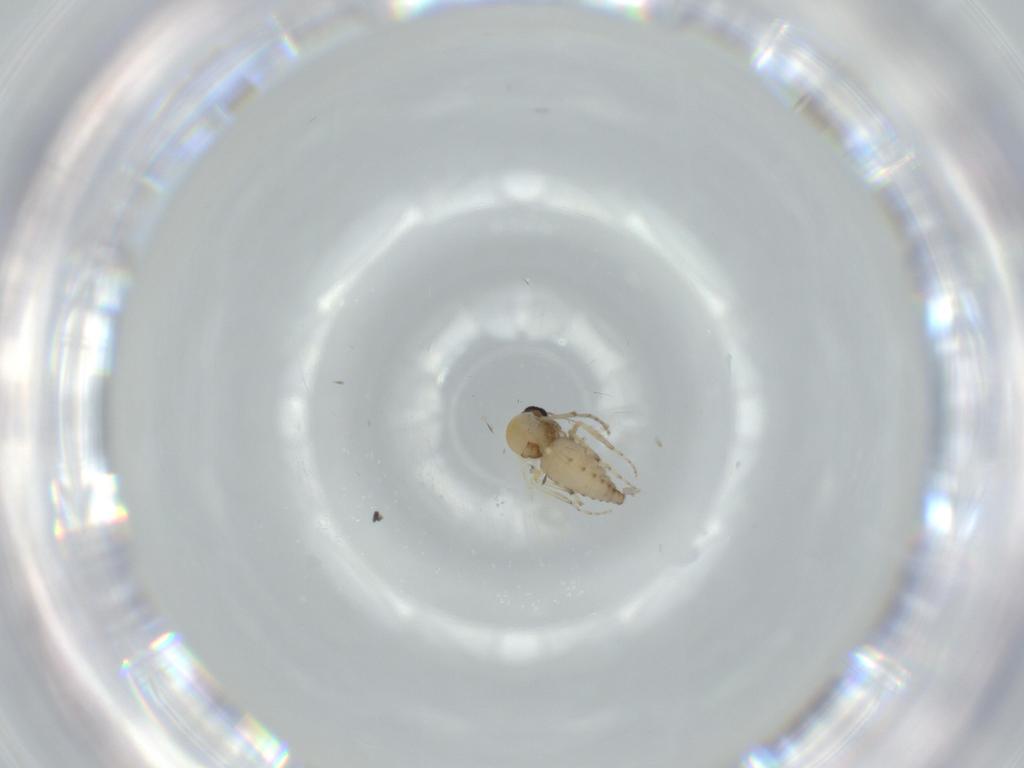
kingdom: Animalia
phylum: Arthropoda
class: Insecta
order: Diptera
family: Ceratopogonidae
